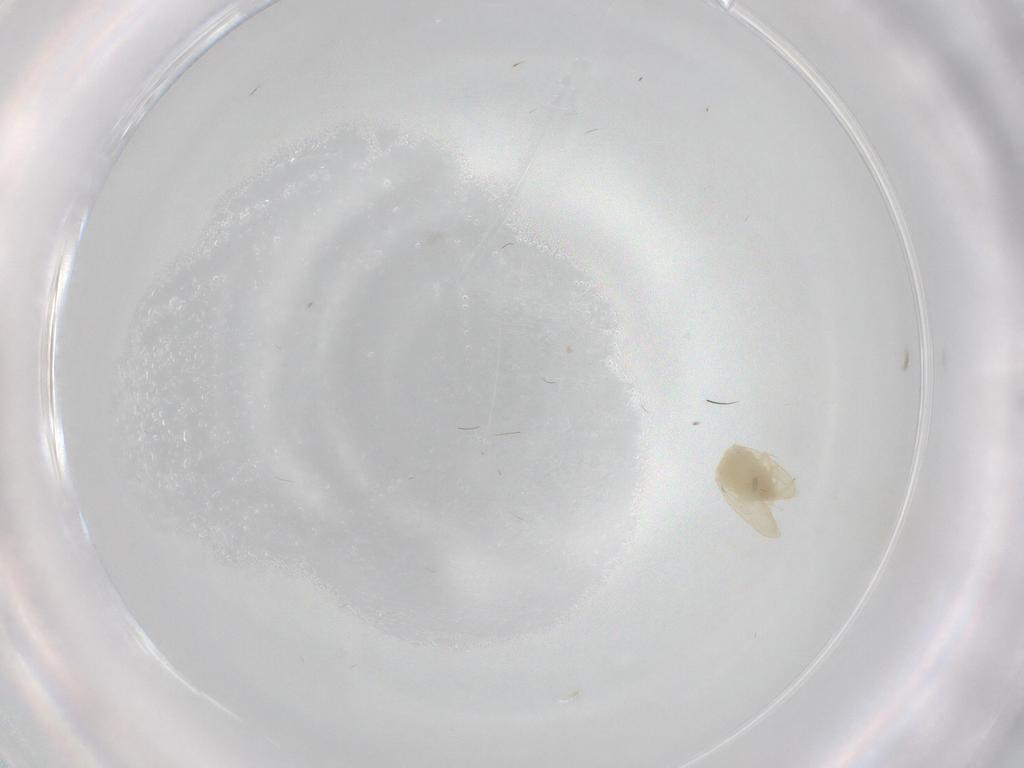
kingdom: Animalia
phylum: Arthropoda
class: Insecta
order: Hemiptera
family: Aleyrodidae
